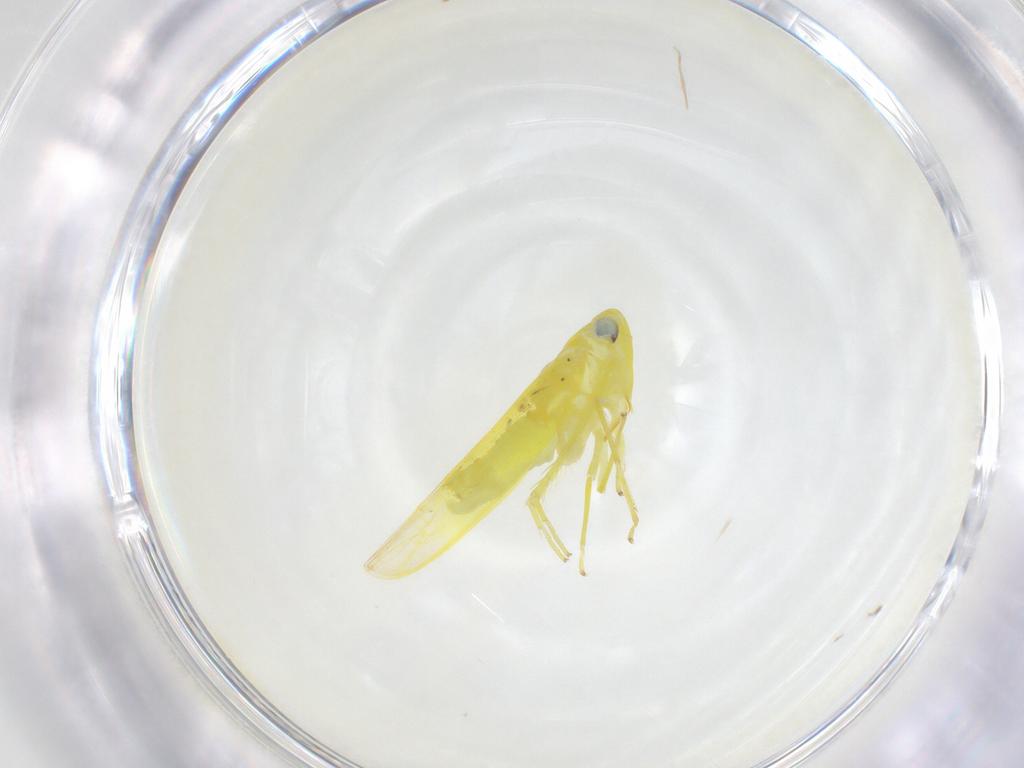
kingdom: Animalia
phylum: Arthropoda
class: Insecta
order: Hemiptera
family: Cicadellidae
